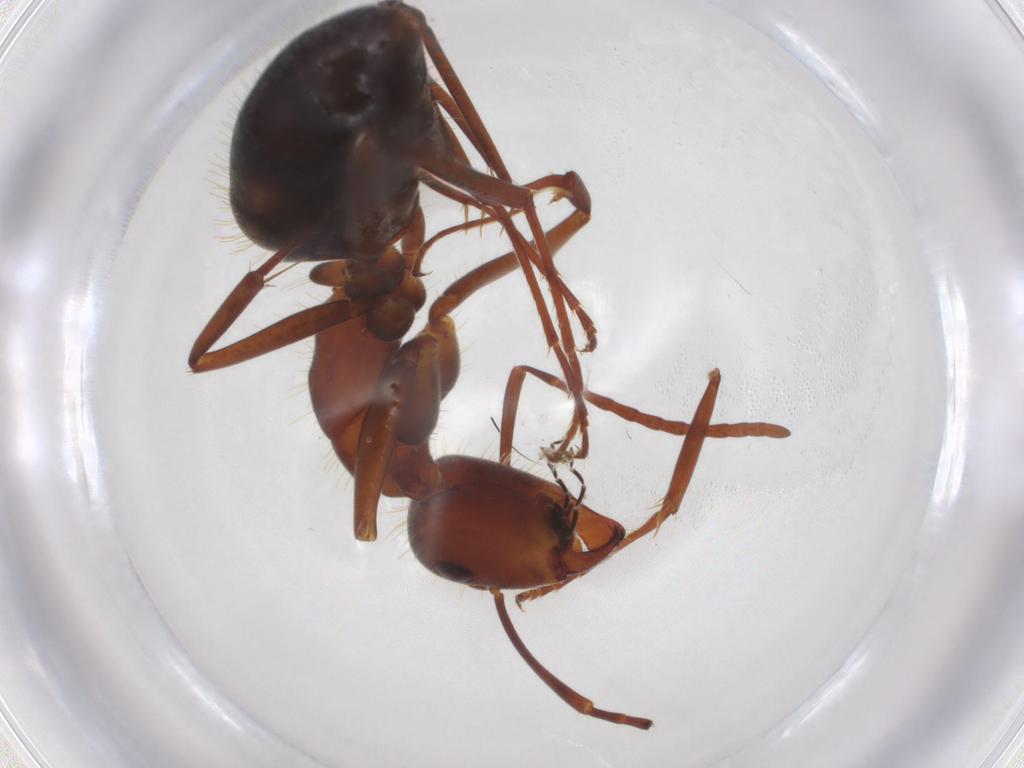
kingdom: Animalia
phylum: Arthropoda
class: Insecta
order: Hymenoptera
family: Formicidae
